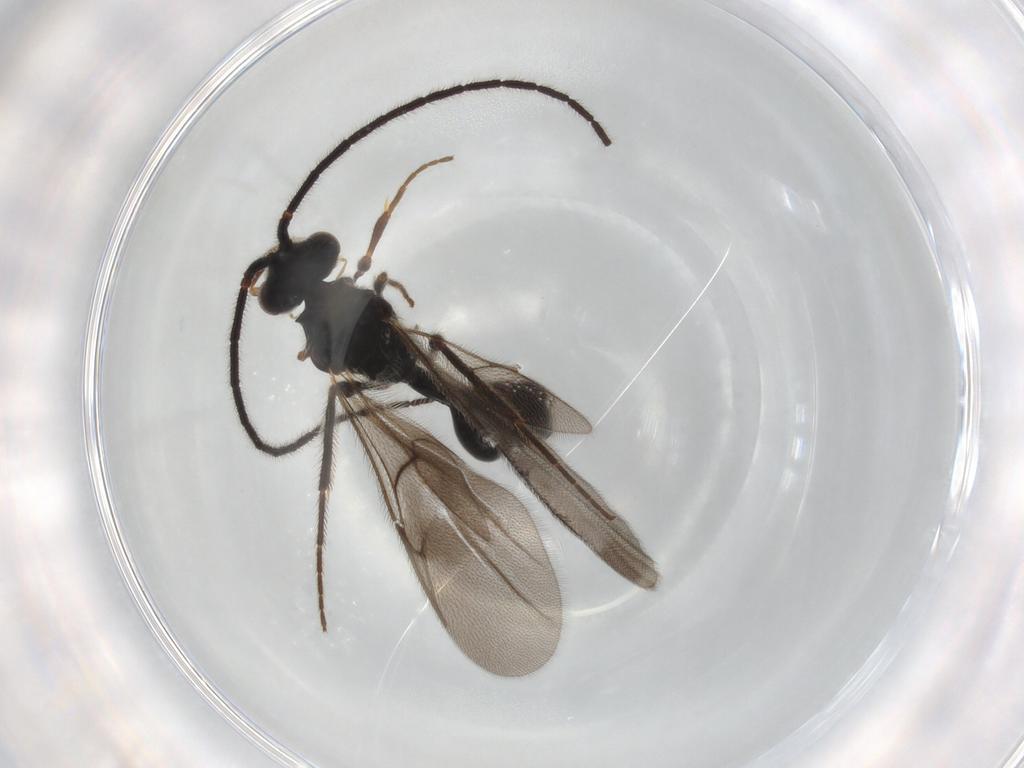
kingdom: Animalia
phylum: Arthropoda
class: Insecta
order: Hymenoptera
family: Diapriidae
